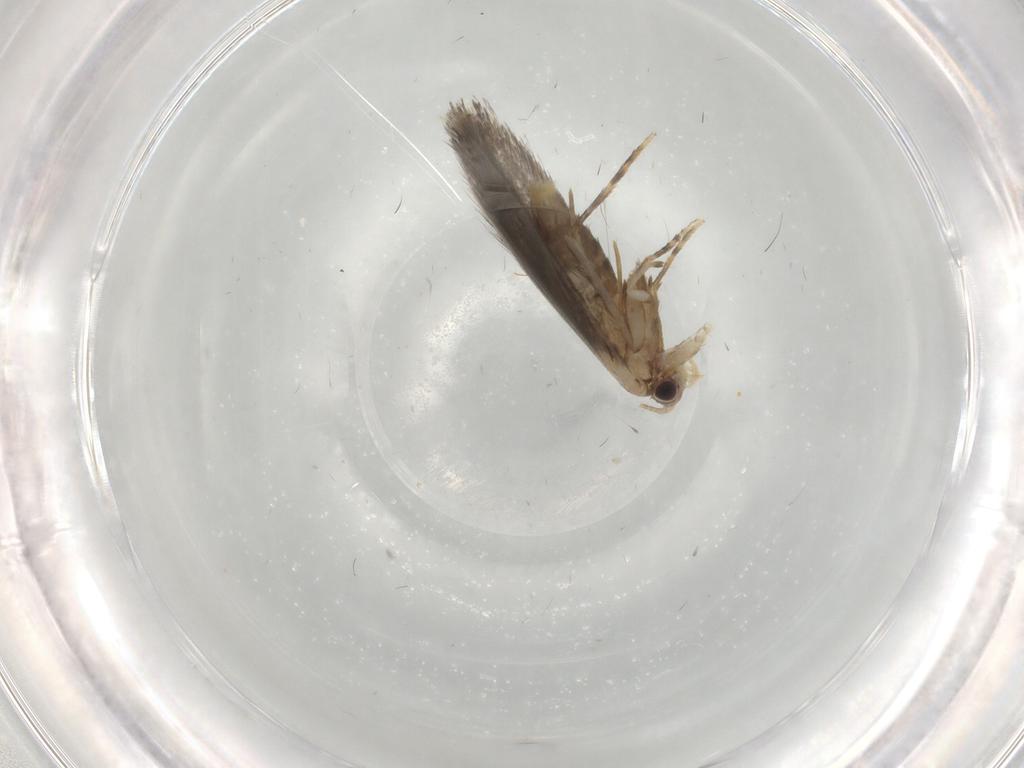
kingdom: Animalia
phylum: Arthropoda
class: Insecta
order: Lepidoptera
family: Tineidae
